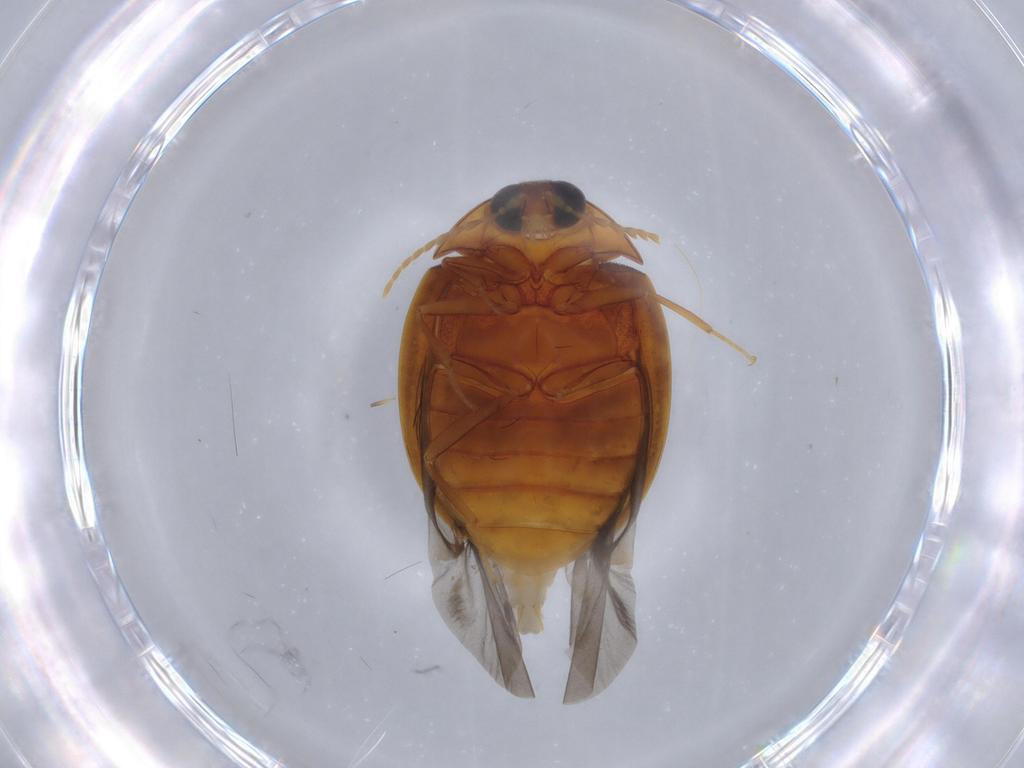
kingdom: Animalia
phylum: Arthropoda
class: Insecta
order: Coleoptera
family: Psephenidae
